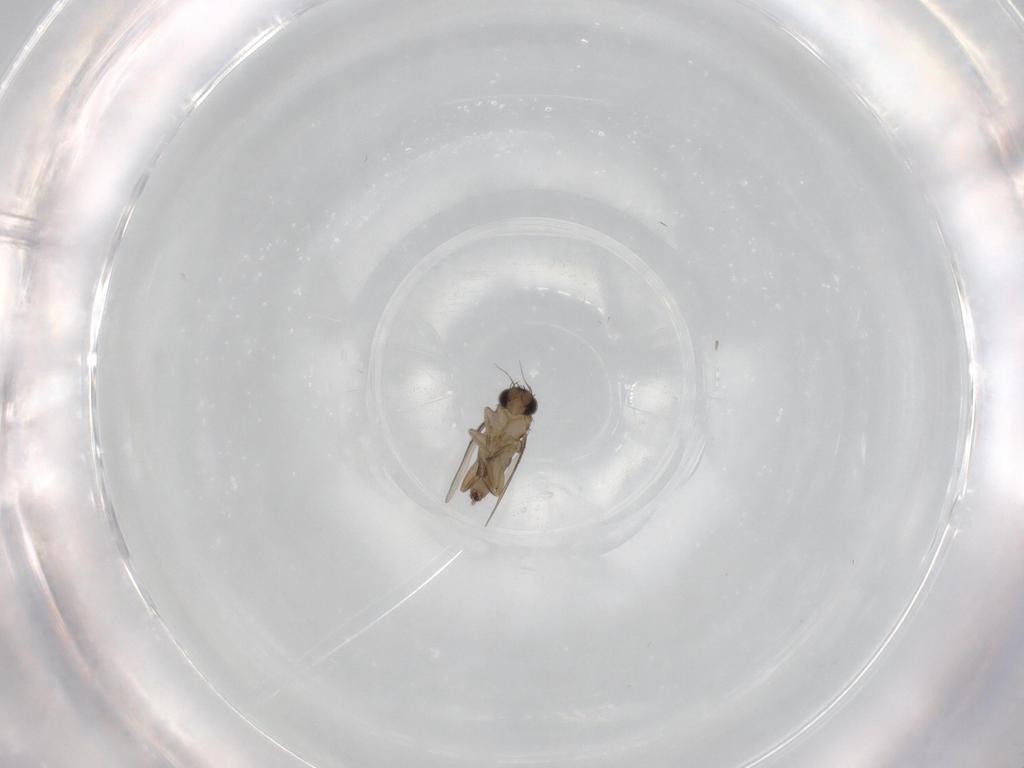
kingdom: Animalia
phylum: Arthropoda
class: Insecta
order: Diptera
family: Phoridae
